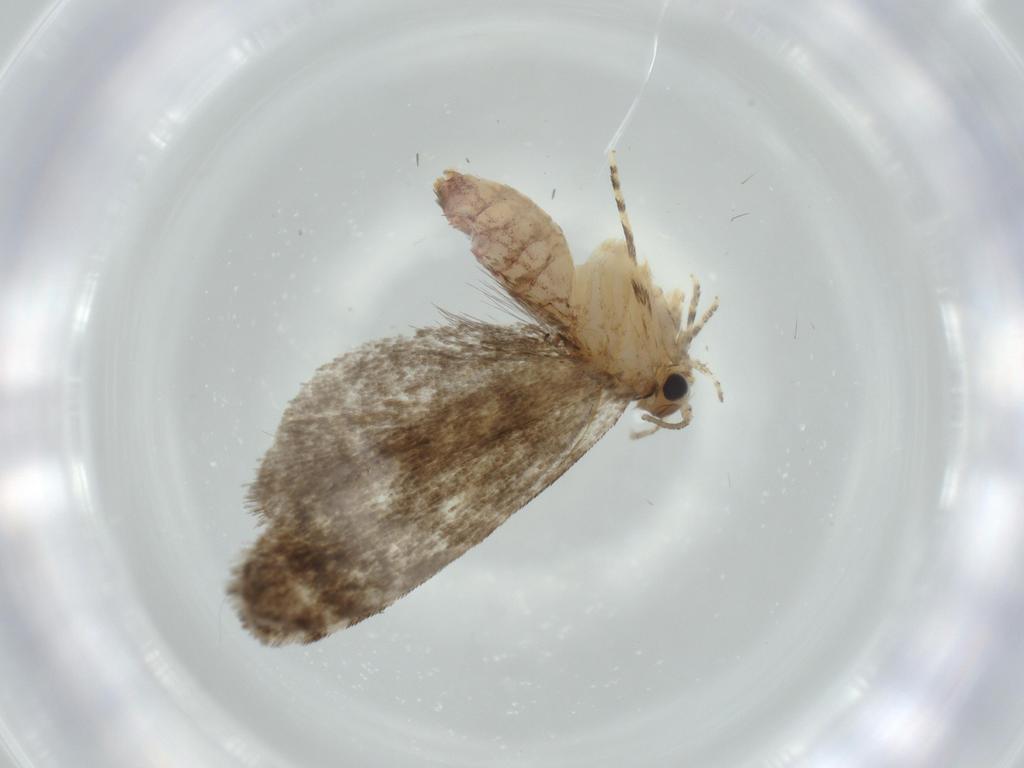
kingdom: Animalia
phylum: Arthropoda
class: Insecta
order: Lepidoptera
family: Tineidae
